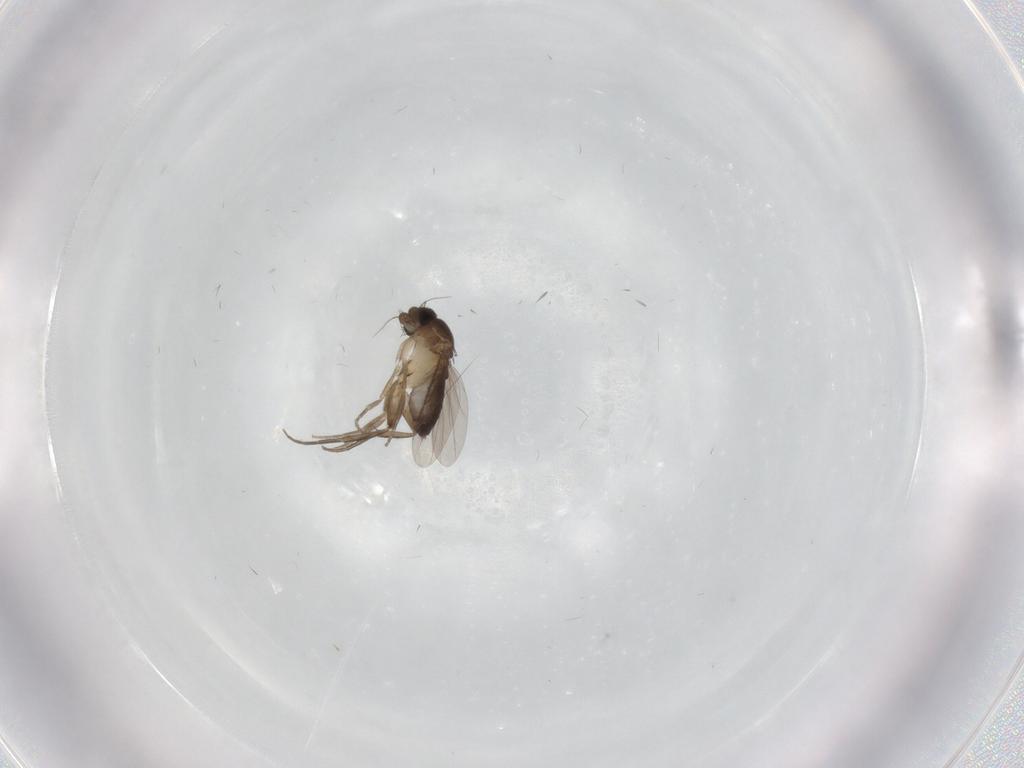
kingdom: Animalia
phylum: Arthropoda
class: Insecta
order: Diptera
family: Phoridae
